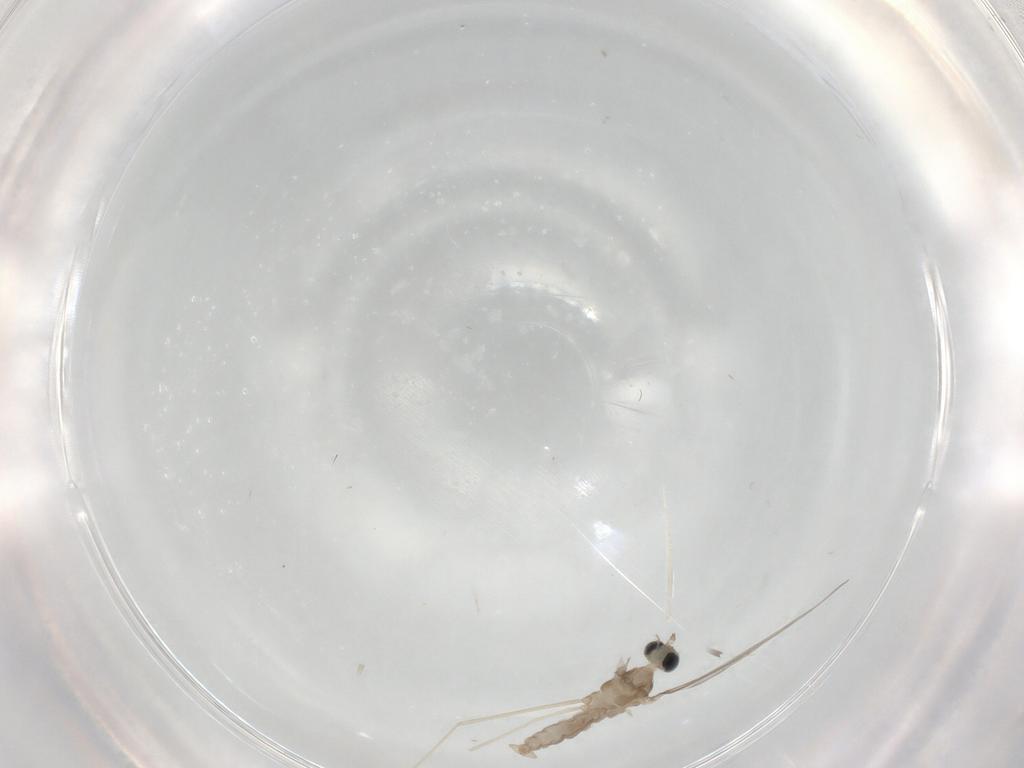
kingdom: Animalia
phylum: Arthropoda
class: Insecta
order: Diptera
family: Cecidomyiidae
